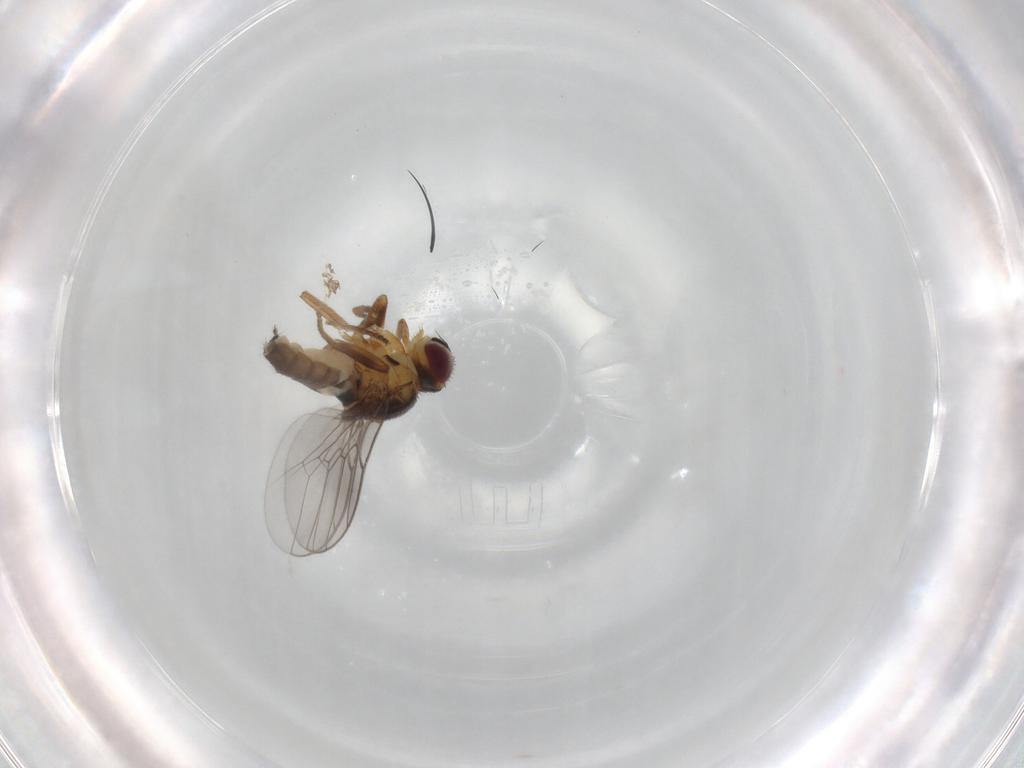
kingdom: Animalia
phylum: Arthropoda
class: Insecta
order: Diptera
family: Chloropidae
